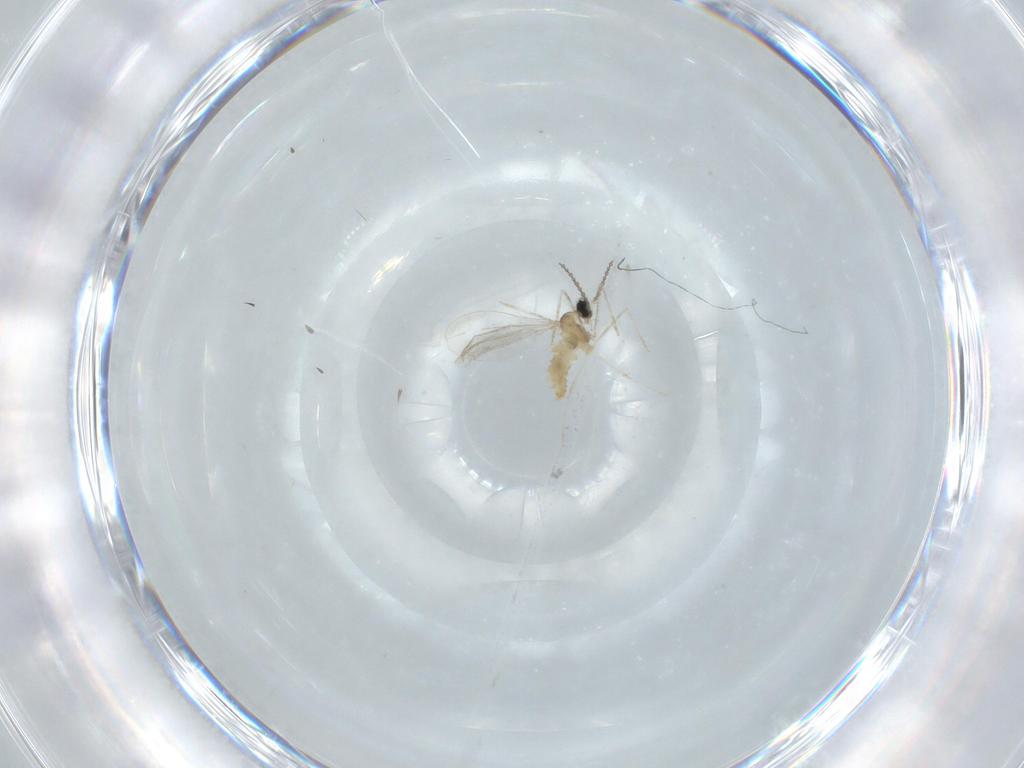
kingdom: Animalia
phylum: Arthropoda
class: Insecta
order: Diptera
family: Cecidomyiidae
